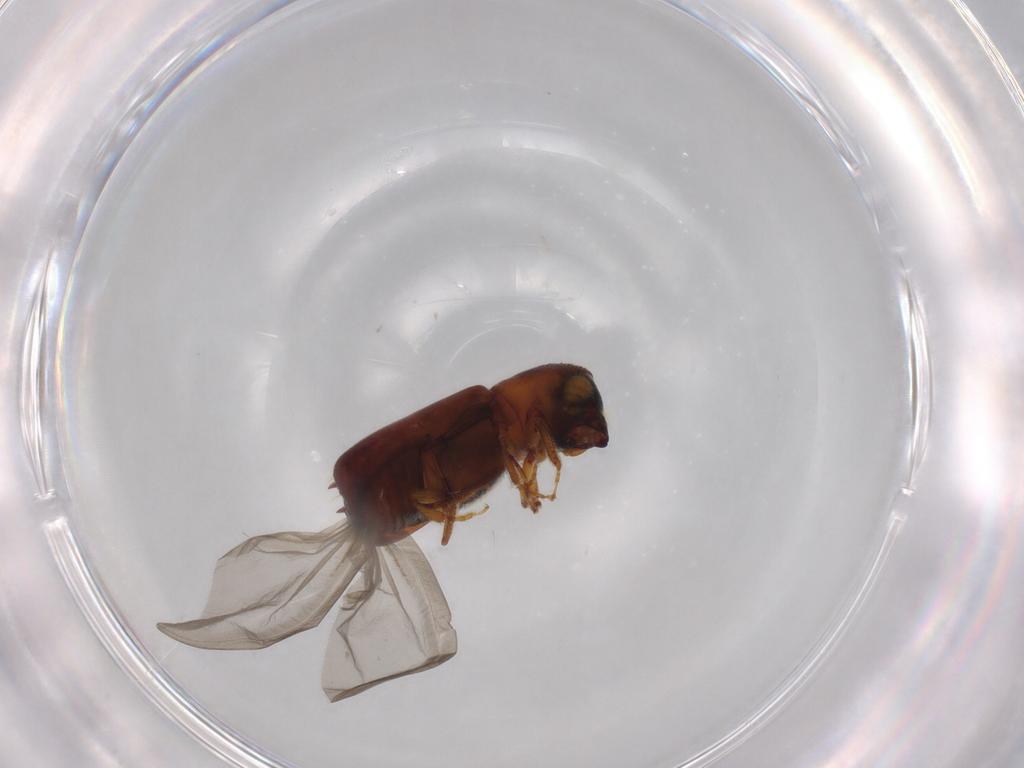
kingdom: Animalia
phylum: Arthropoda
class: Insecta
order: Coleoptera
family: Curculionidae
